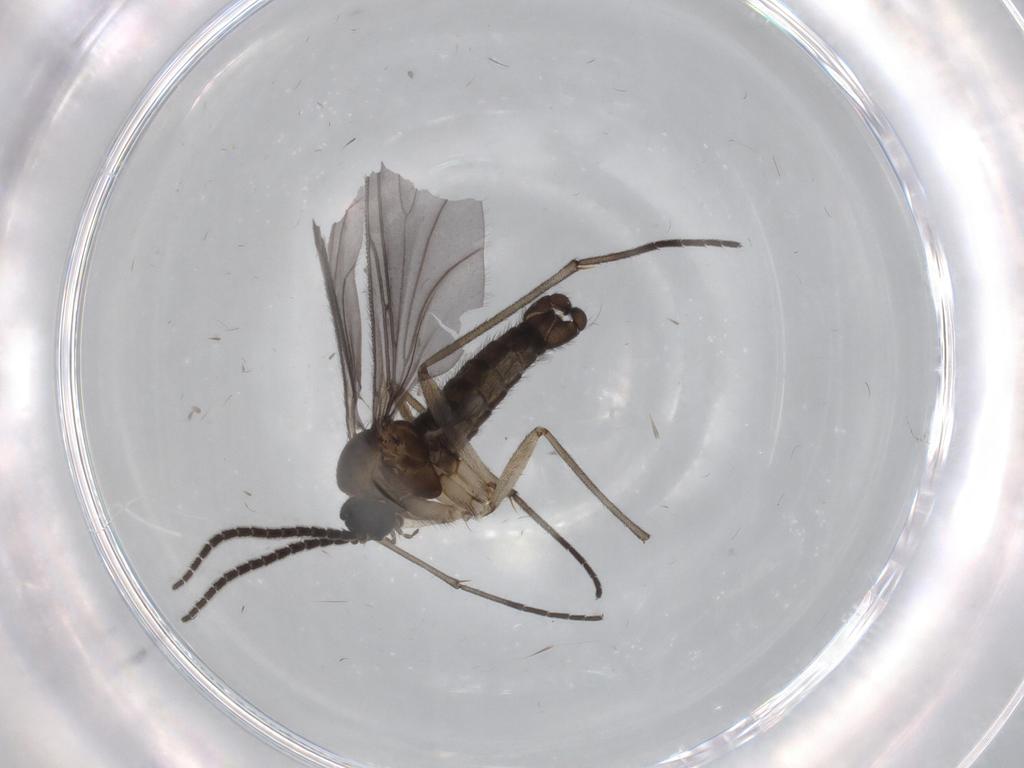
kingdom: Animalia
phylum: Arthropoda
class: Insecta
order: Diptera
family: Sciaridae
